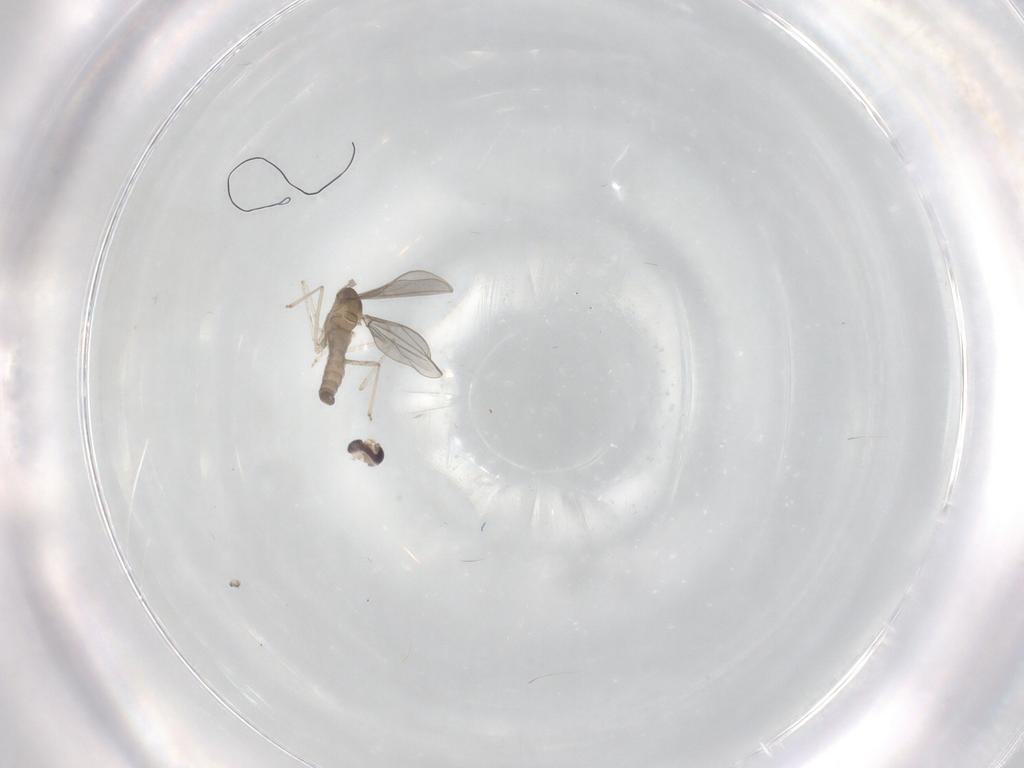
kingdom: Animalia
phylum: Arthropoda
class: Insecta
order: Diptera
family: Cecidomyiidae
